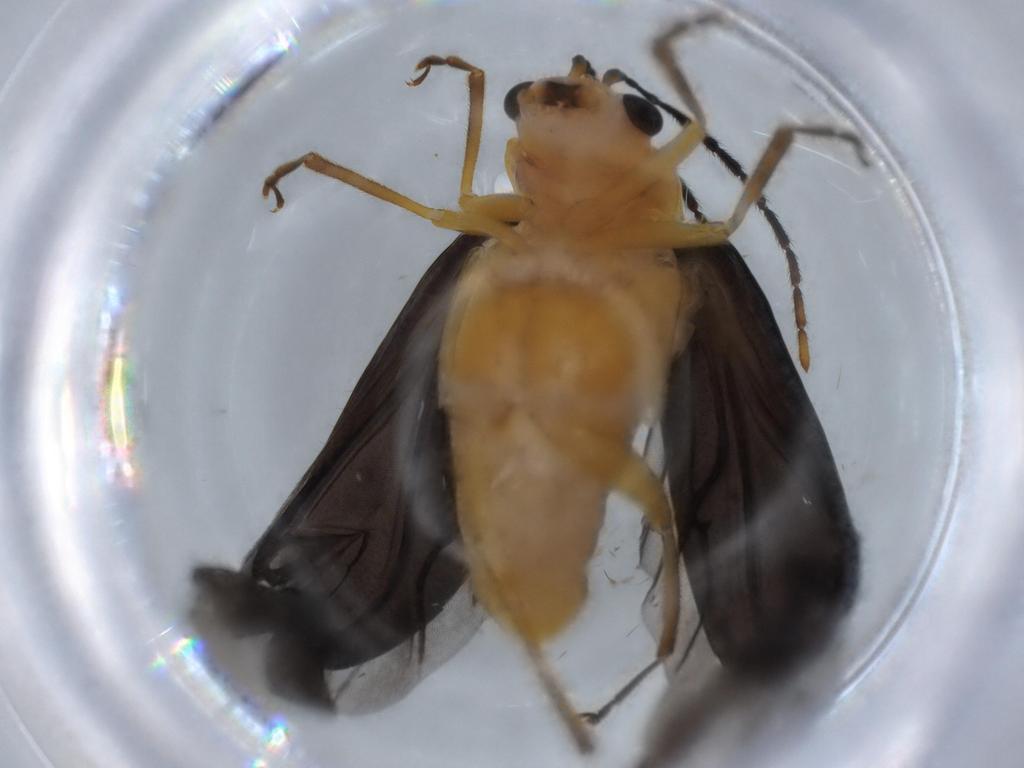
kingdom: Animalia
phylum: Arthropoda
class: Insecta
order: Coleoptera
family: Chrysomelidae
